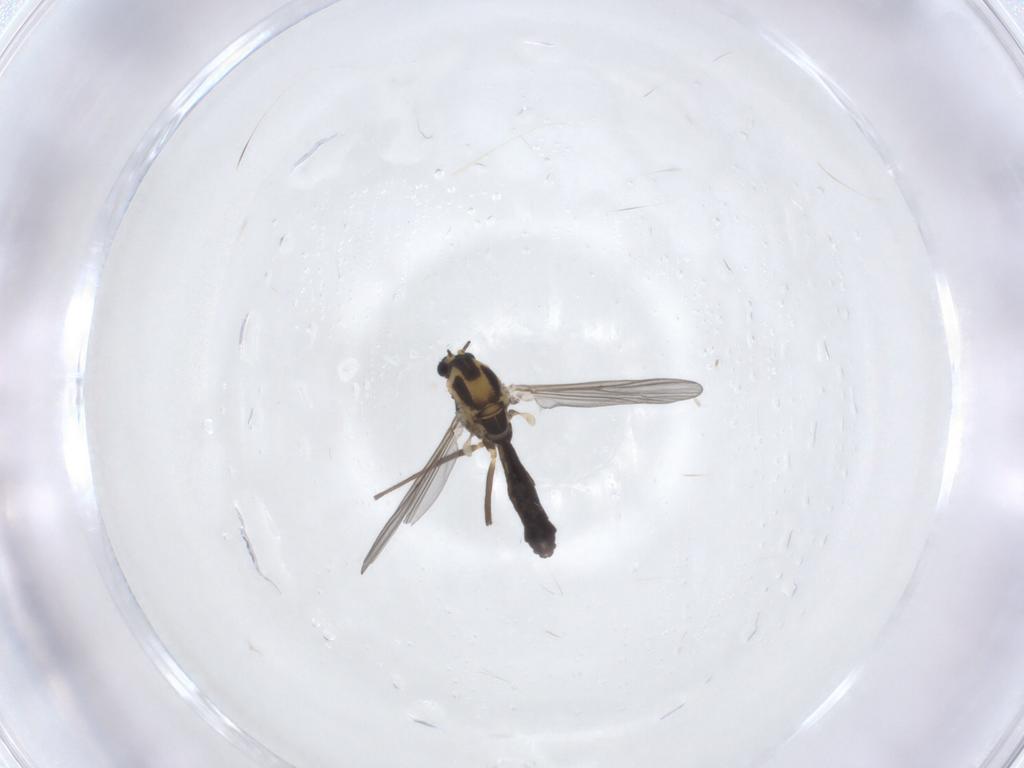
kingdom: Animalia
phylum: Arthropoda
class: Insecta
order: Diptera
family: Chironomidae
